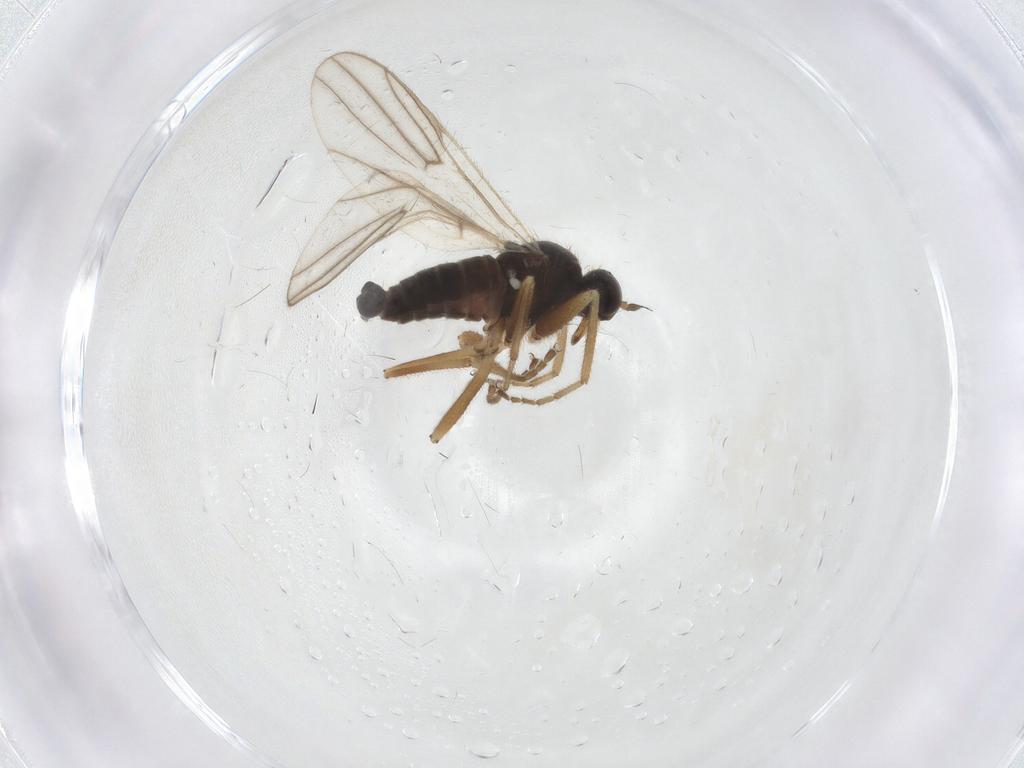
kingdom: Animalia
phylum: Arthropoda
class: Insecta
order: Diptera
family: Hybotidae
